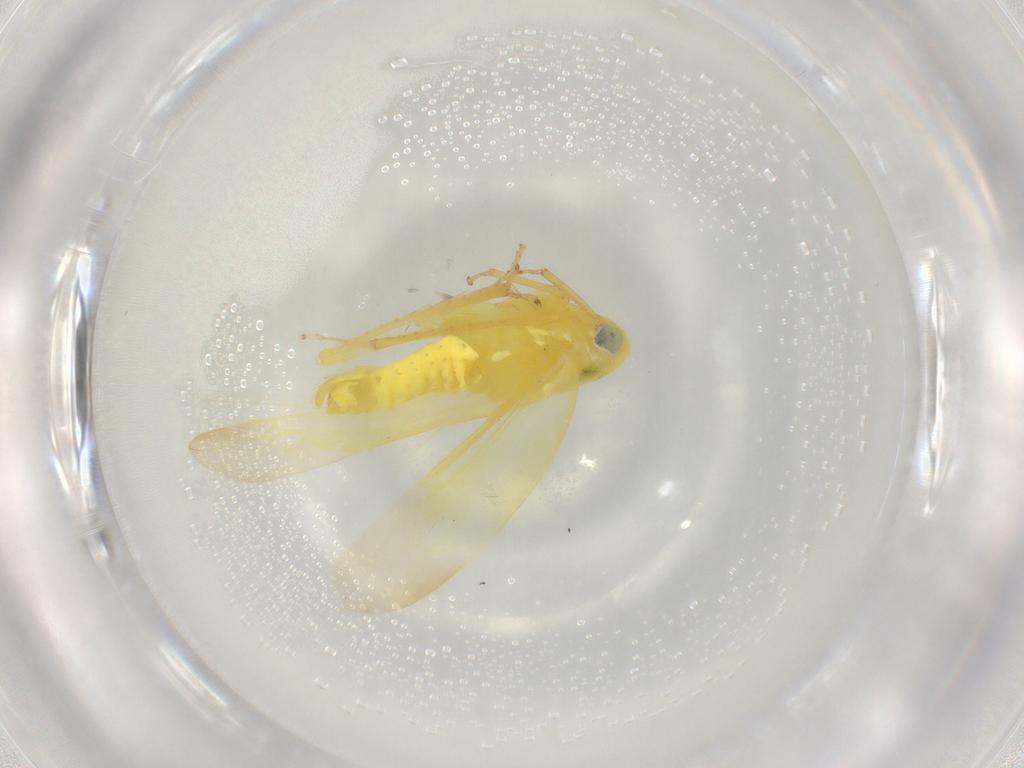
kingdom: Animalia
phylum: Arthropoda
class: Insecta
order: Hemiptera
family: Cicadellidae
